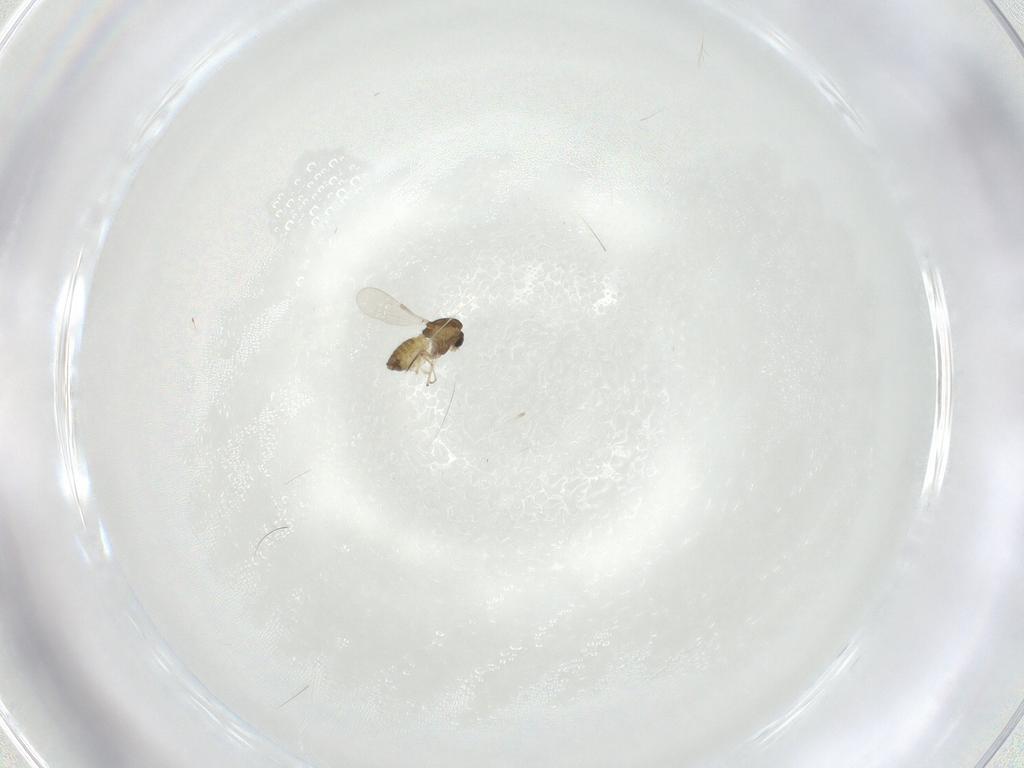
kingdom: Animalia
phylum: Arthropoda
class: Insecta
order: Diptera
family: Chironomidae
